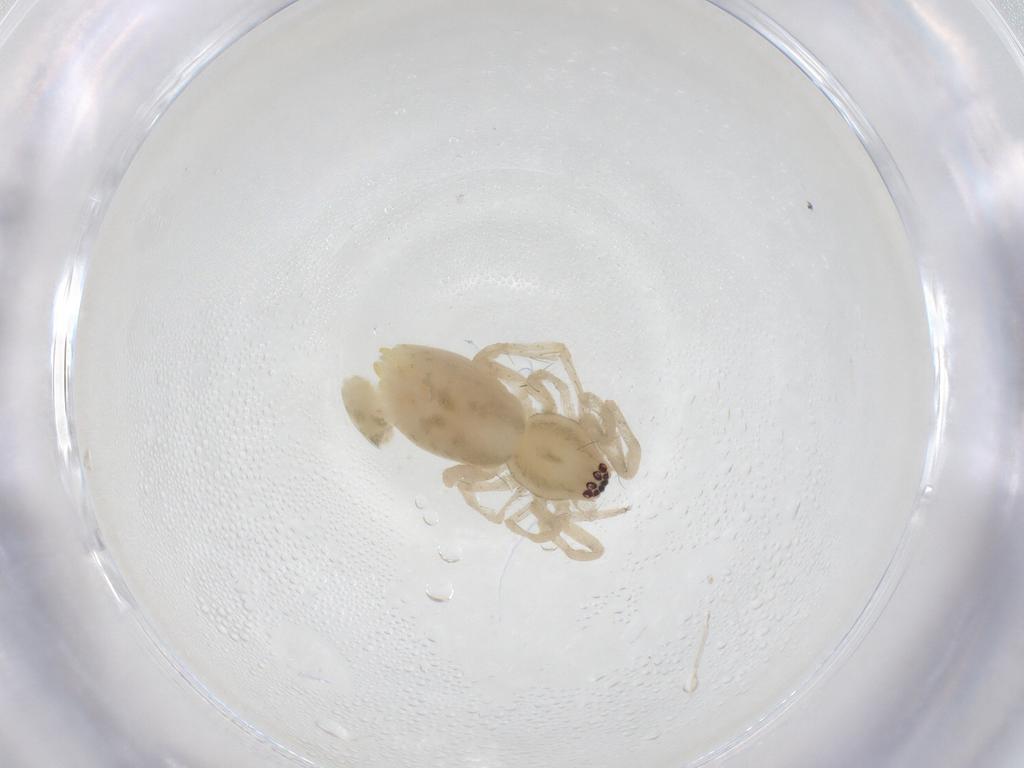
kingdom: Animalia
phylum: Arthropoda
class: Arachnida
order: Araneae
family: Anyphaenidae
